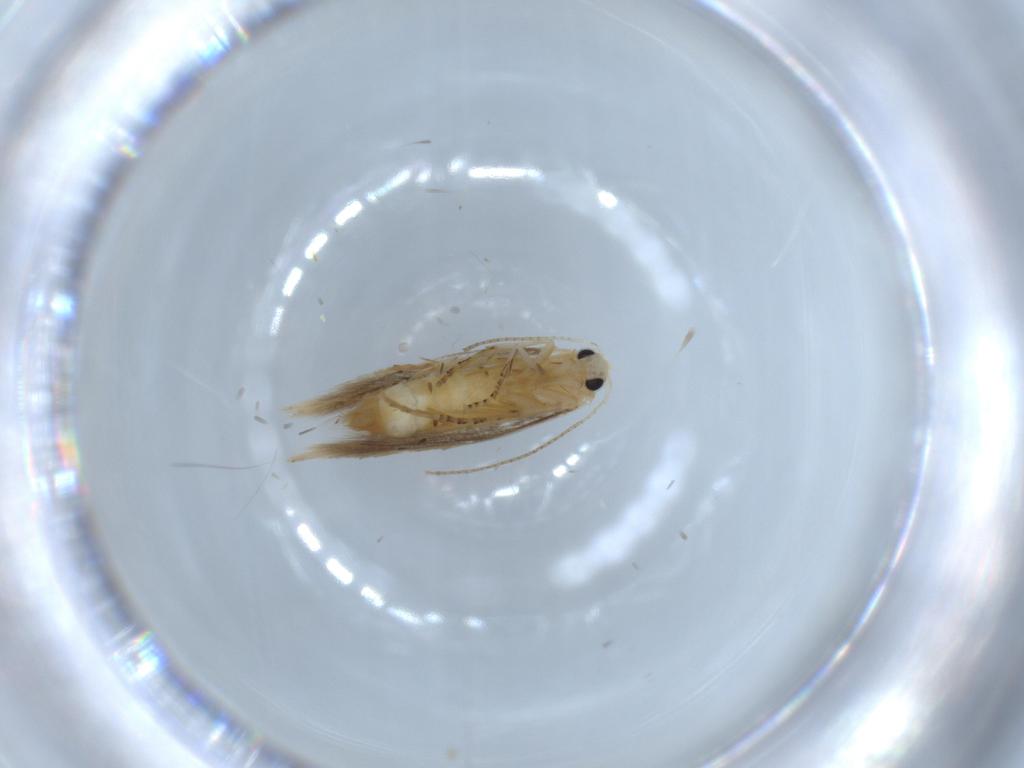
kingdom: Animalia
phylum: Arthropoda
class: Insecta
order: Lepidoptera
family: Bucculatricidae
